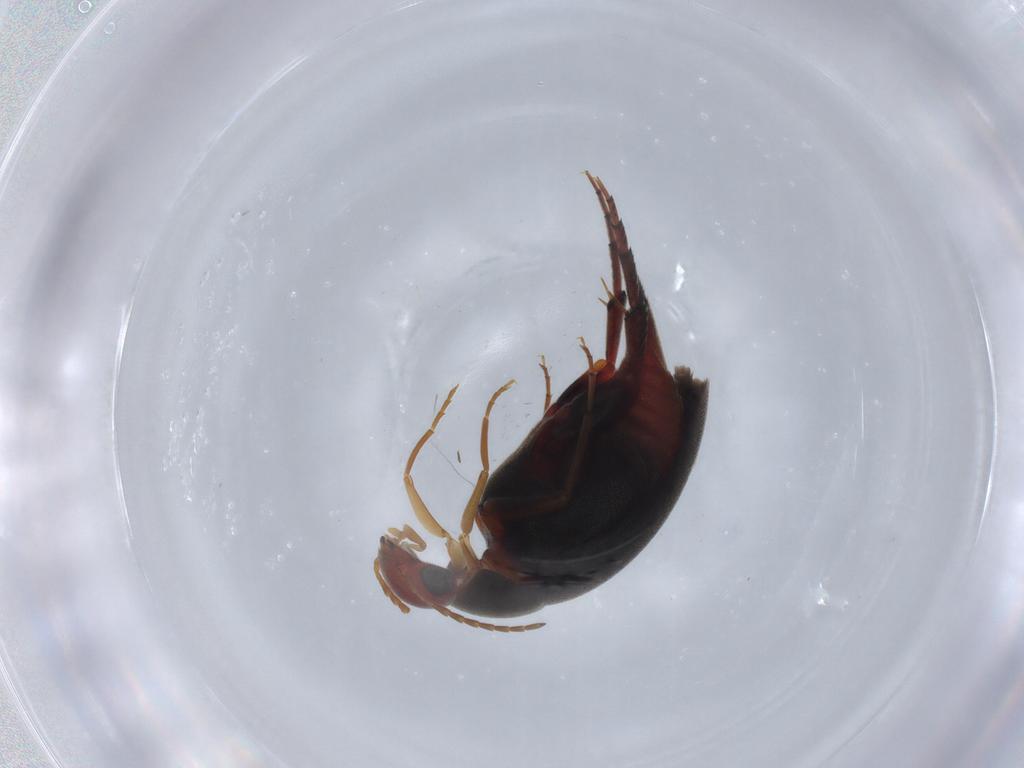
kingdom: Animalia
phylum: Arthropoda
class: Insecta
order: Coleoptera
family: Mordellidae
